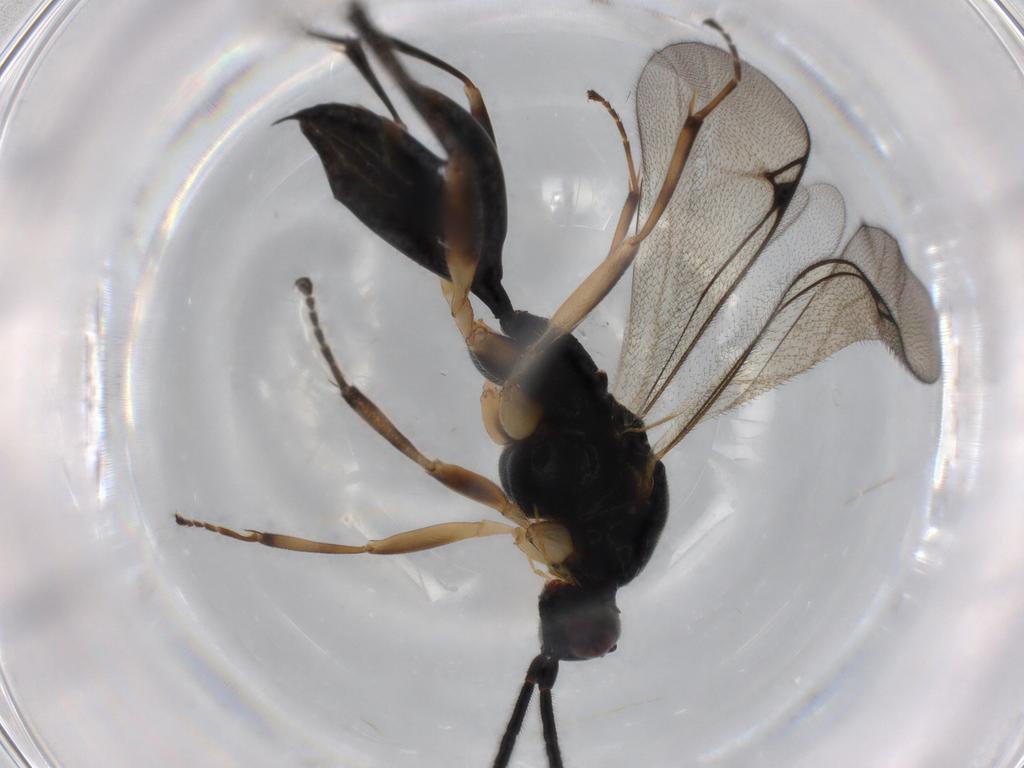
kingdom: Animalia
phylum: Arthropoda
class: Insecta
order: Hymenoptera
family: Proctotrupidae
